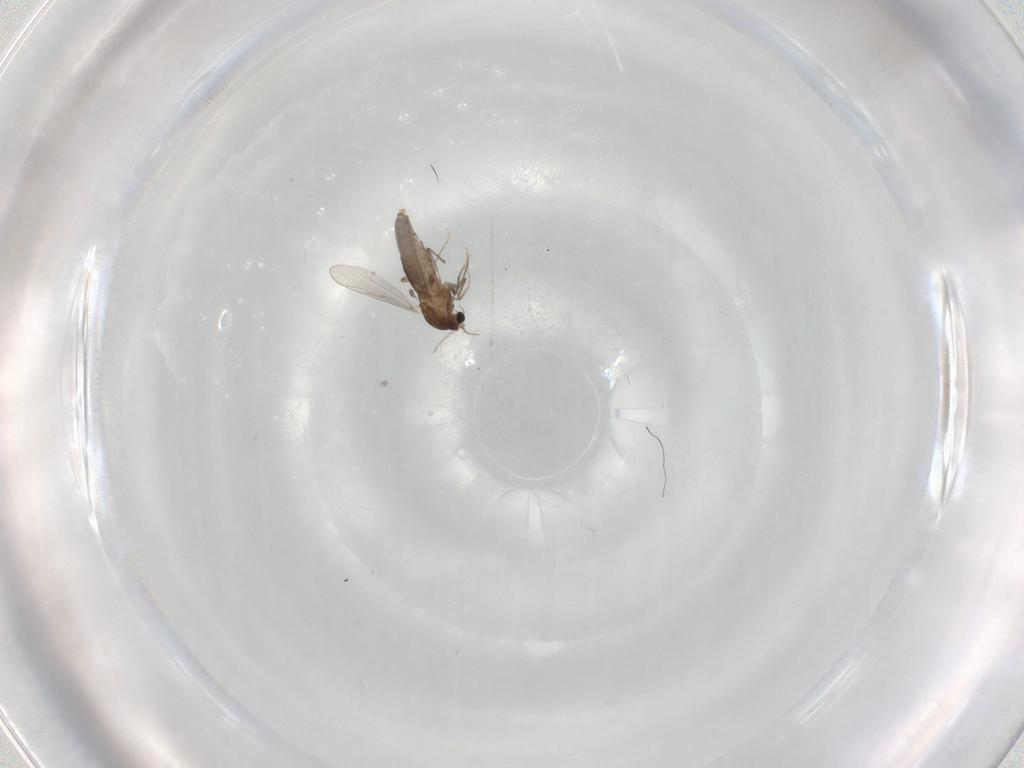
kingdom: Animalia
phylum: Arthropoda
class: Insecta
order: Diptera
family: Chironomidae
